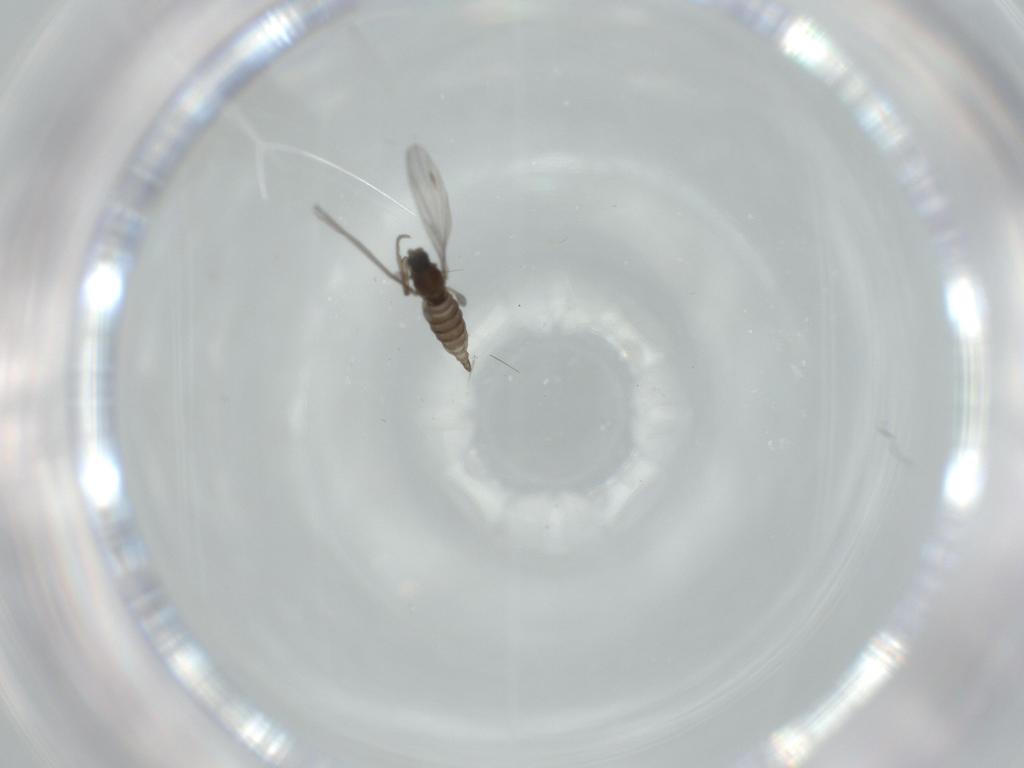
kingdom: Animalia
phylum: Arthropoda
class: Insecta
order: Diptera
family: Sciaridae
